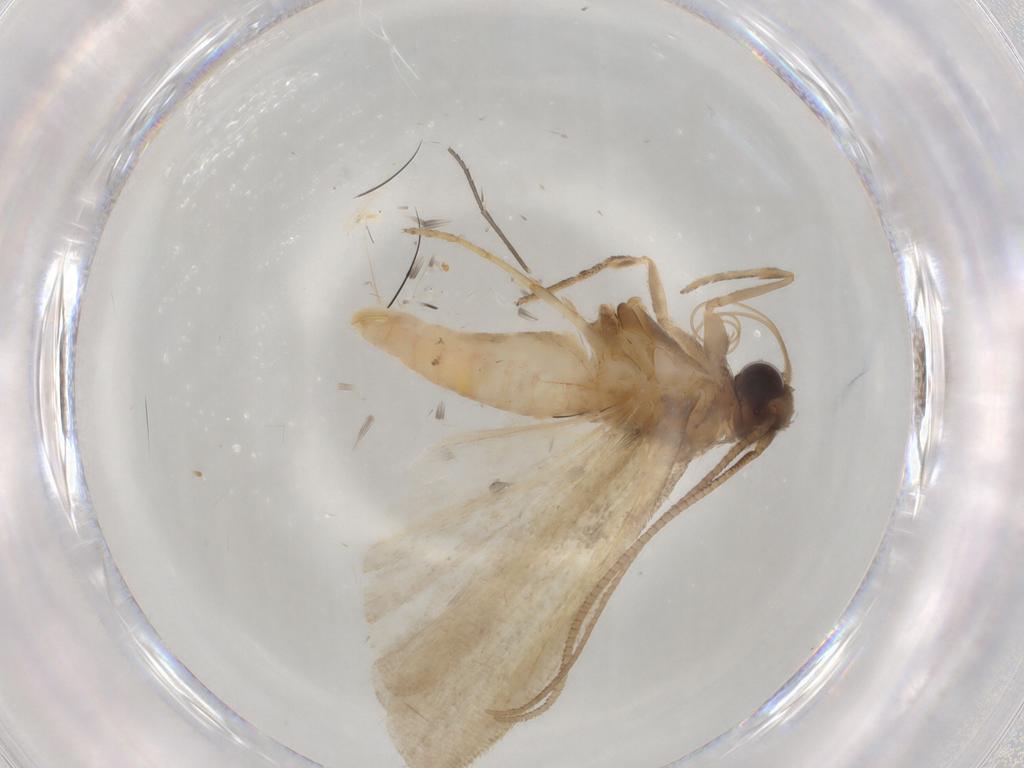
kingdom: Animalia
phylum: Arthropoda
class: Insecta
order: Lepidoptera
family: Noctuidae
